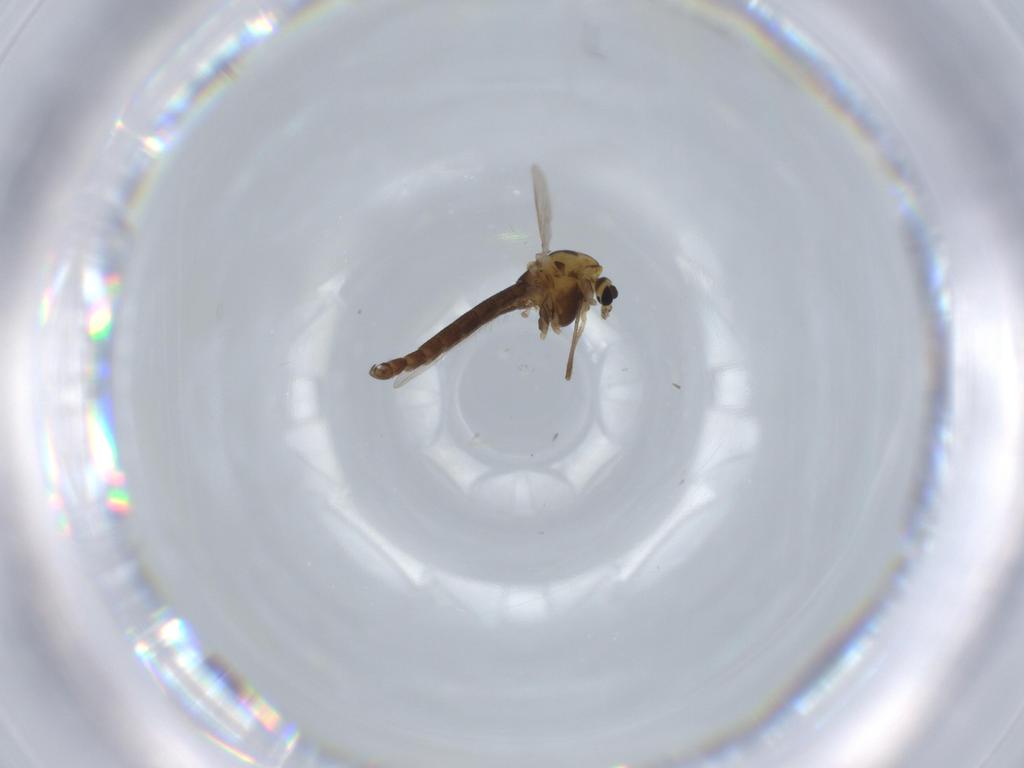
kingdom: Animalia
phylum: Arthropoda
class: Insecta
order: Diptera
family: Chironomidae
